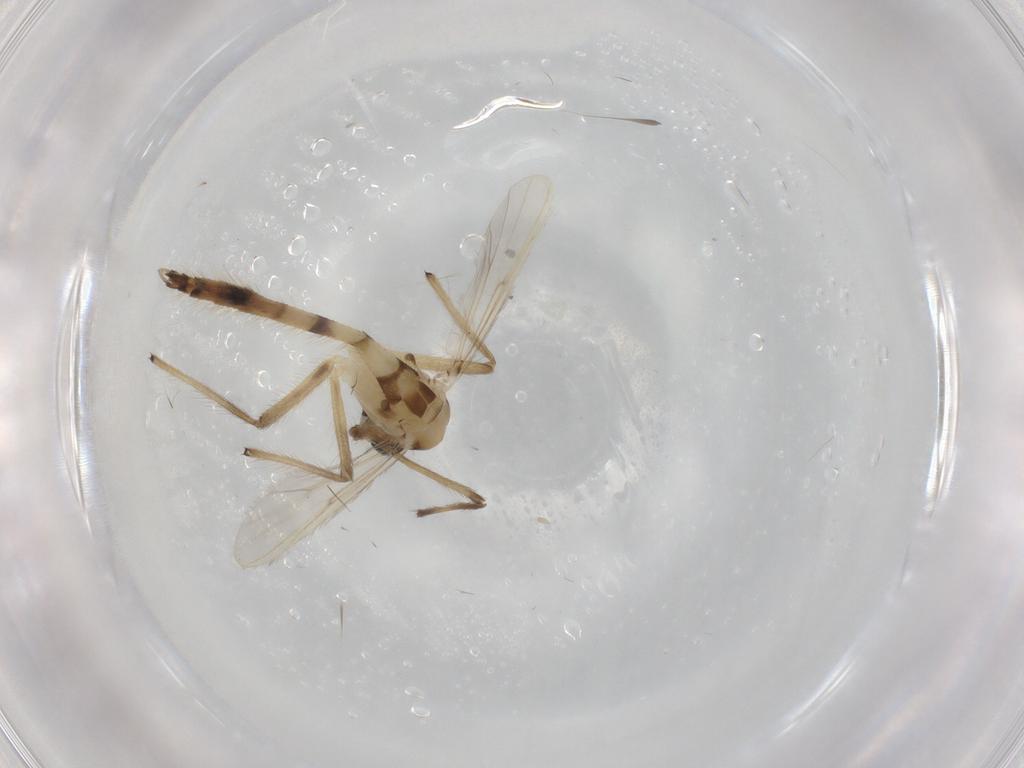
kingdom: Animalia
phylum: Arthropoda
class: Insecta
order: Diptera
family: Chironomidae
